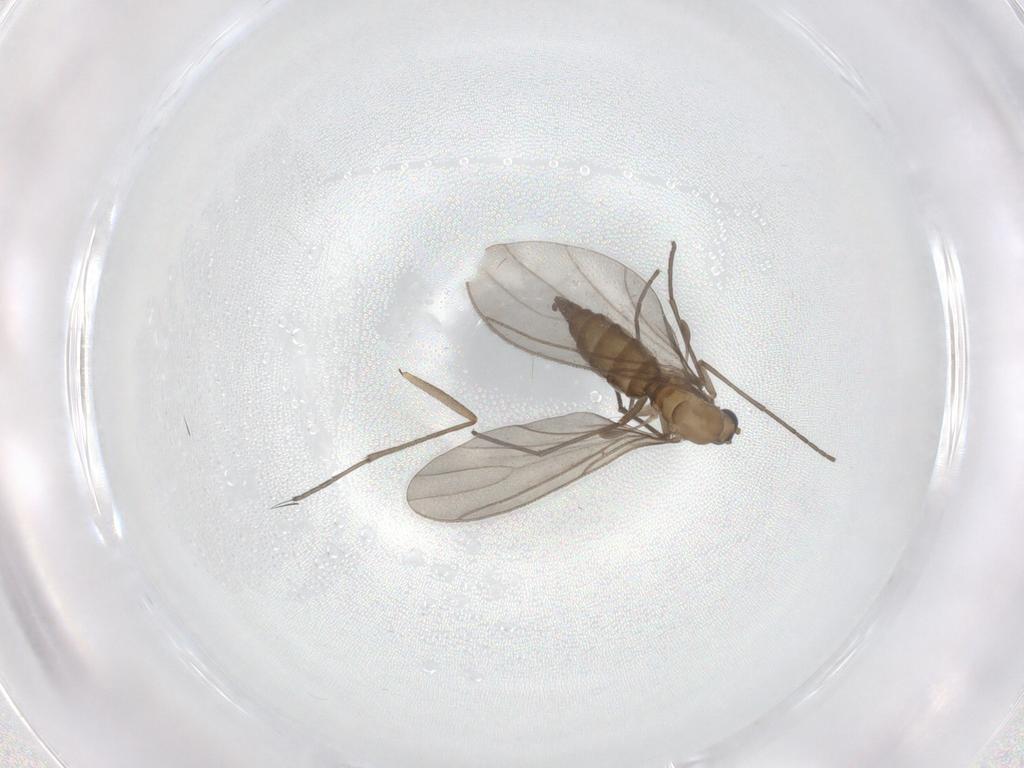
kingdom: Animalia
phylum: Arthropoda
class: Insecta
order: Diptera
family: Sciaridae
